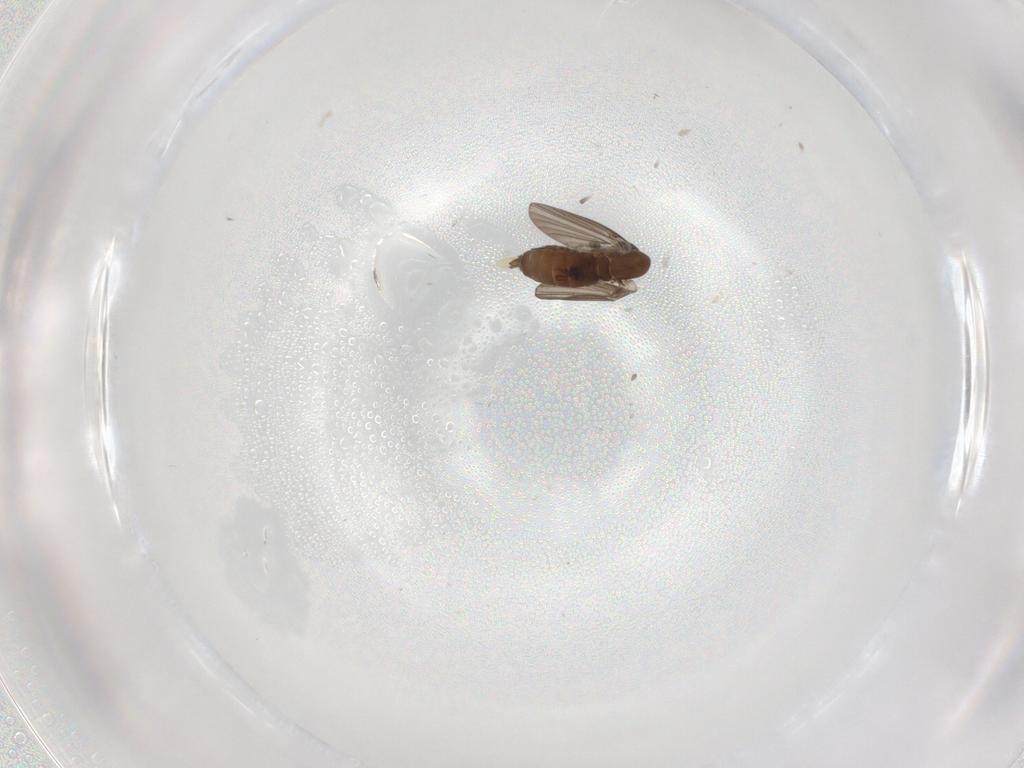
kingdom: Animalia
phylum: Arthropoda
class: Insecta
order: Diptera
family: Psychodidae
